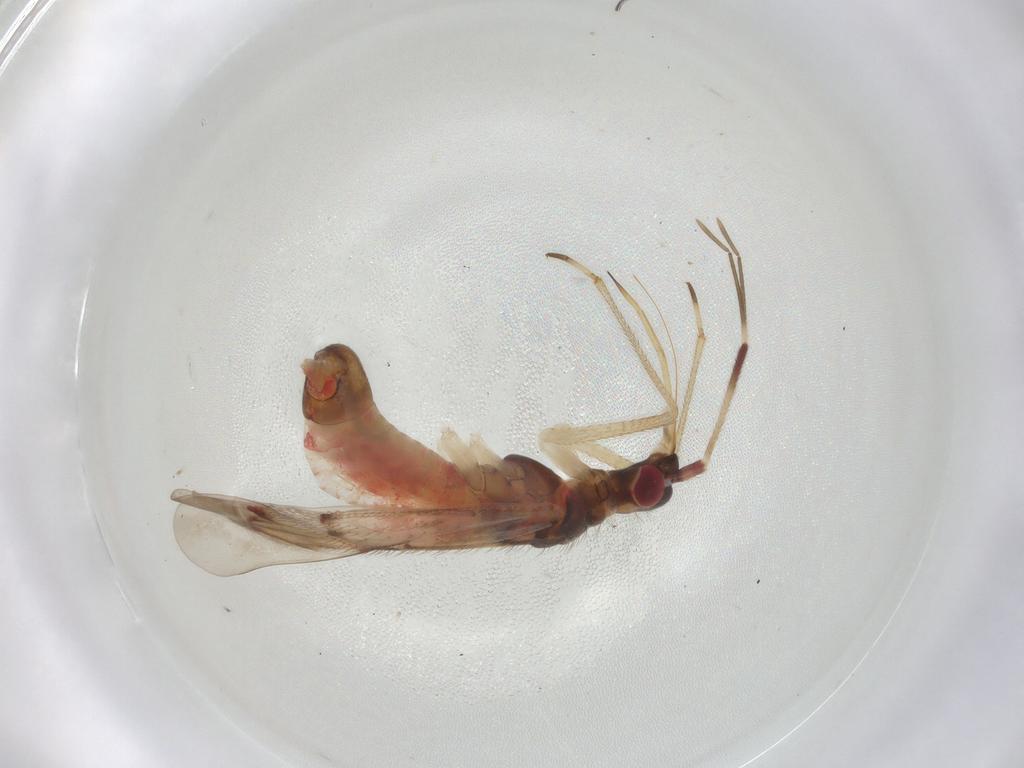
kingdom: Animalia
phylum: Arthropoda
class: Insecta
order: Hemiptera
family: Miridae
